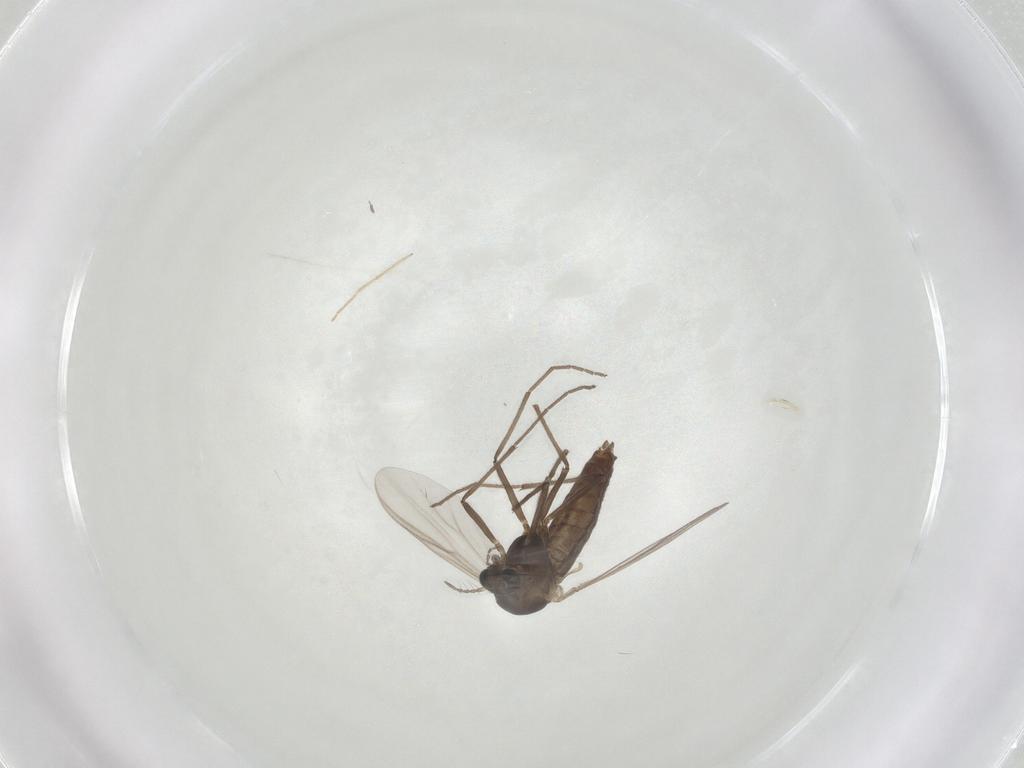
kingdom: Animalia
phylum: Arthropoda
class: Insecta
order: Diptera
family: Chironomidae
